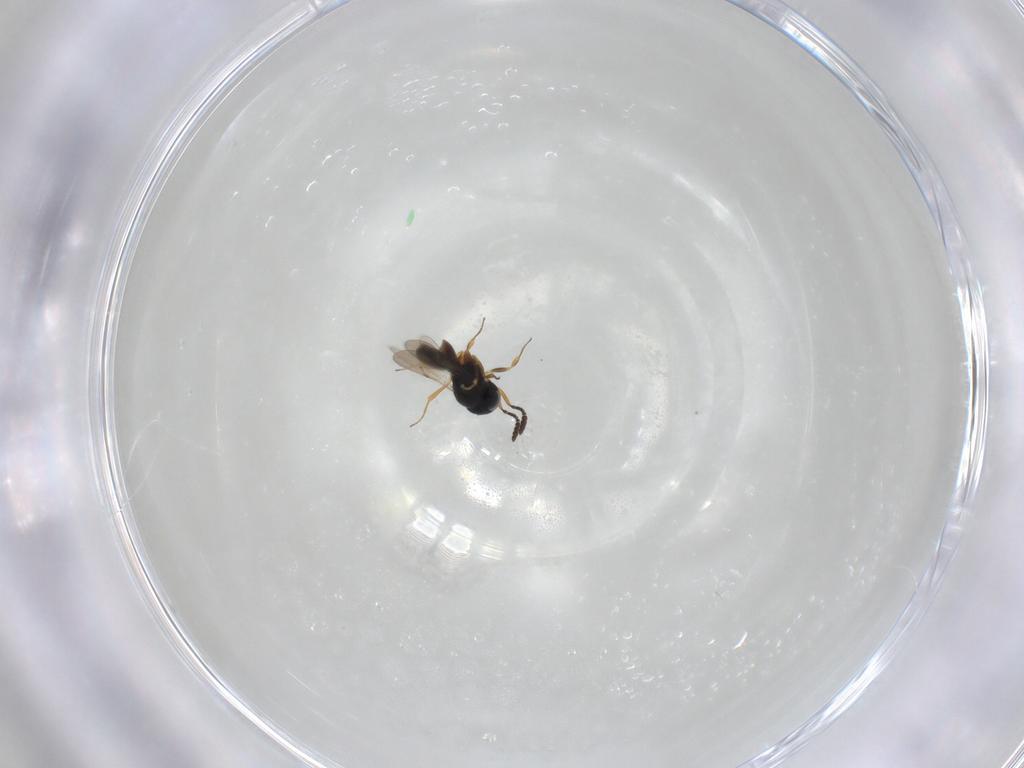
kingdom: Animalia
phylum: Arthropoda
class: Insecta
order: Hymenoptera
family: Scelionidae
